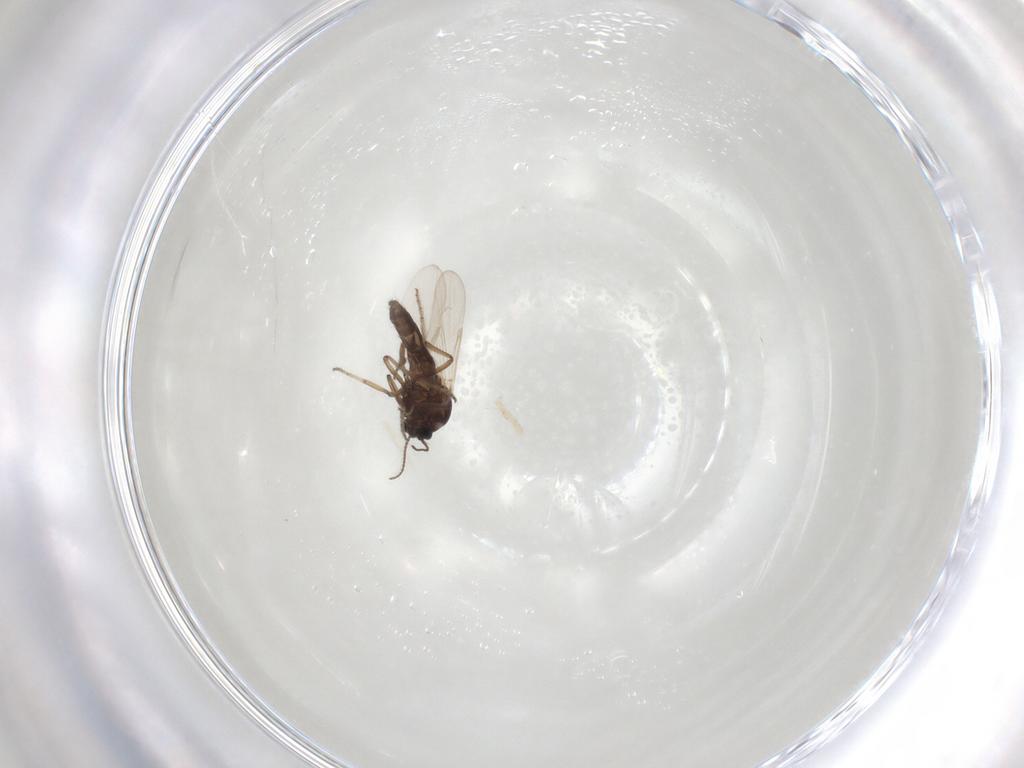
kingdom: Animalia
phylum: Arthropoda
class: Insecta
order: Diptera
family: Ceratopogonidae
